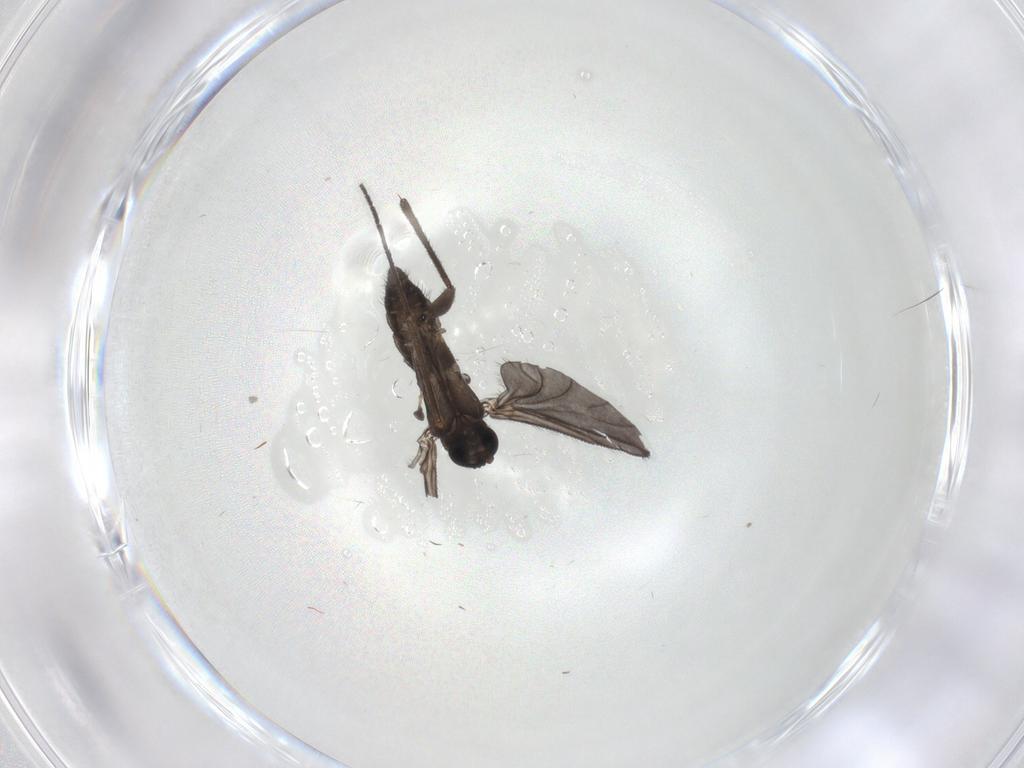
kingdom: Animalia
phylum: Arthropoda
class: Insecta
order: Diptera
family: Sciaridae
